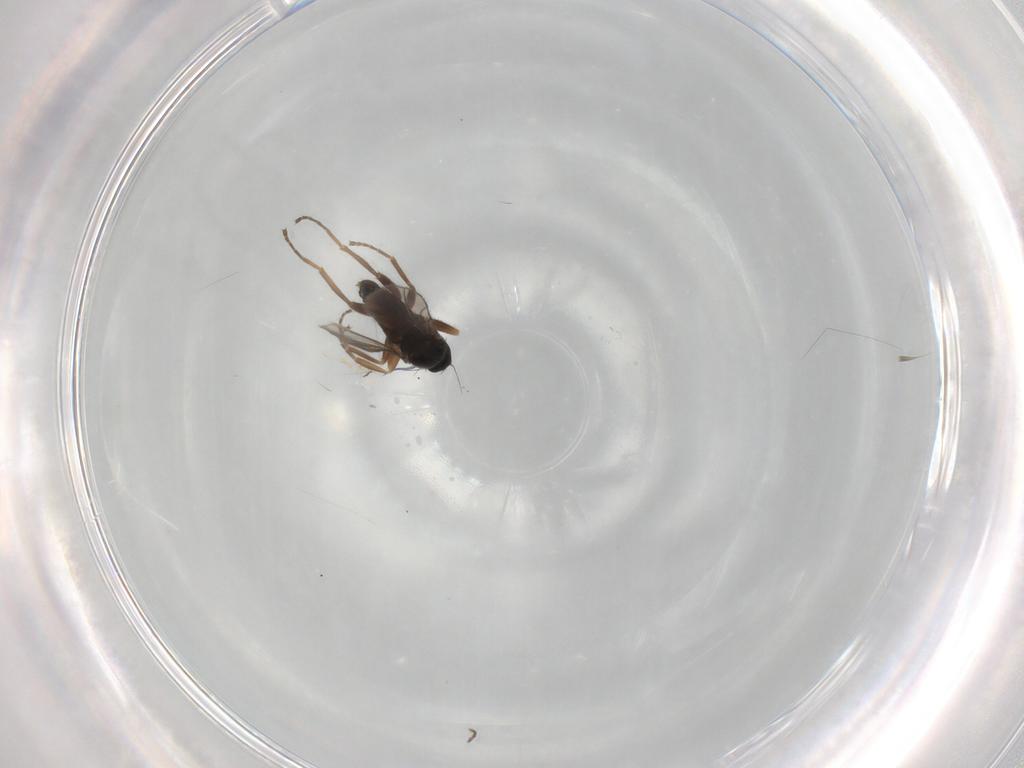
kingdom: Animalia
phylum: Arthropoda
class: Insecta
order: Diptera
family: Hybotidae
